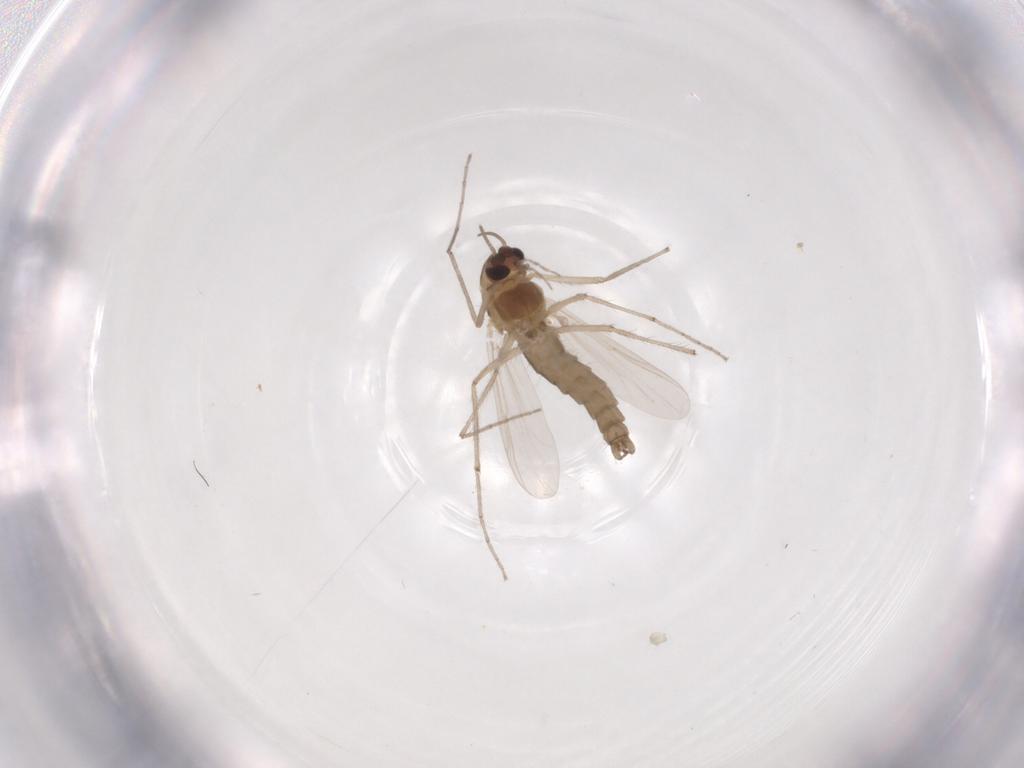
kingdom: Animalia
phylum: Arthropoda
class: Insecta
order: Diptera
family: Chironomidae
